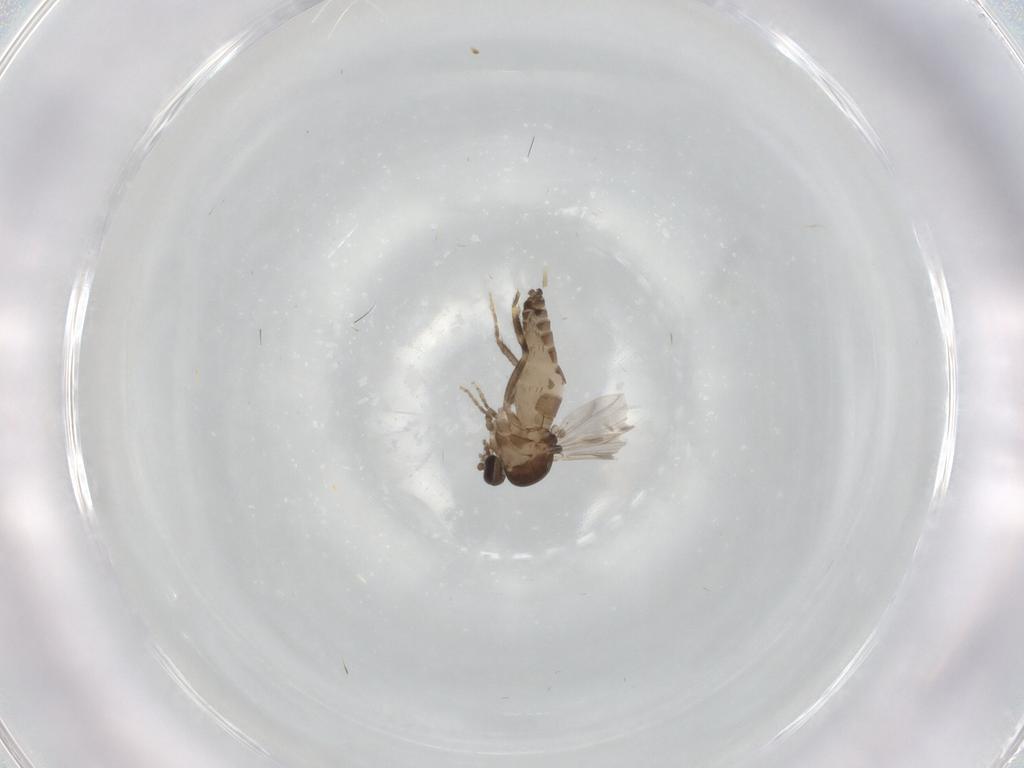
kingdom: Animalia
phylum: Arthropoda
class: Insecta
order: Diptera
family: Ceratopogonidae
